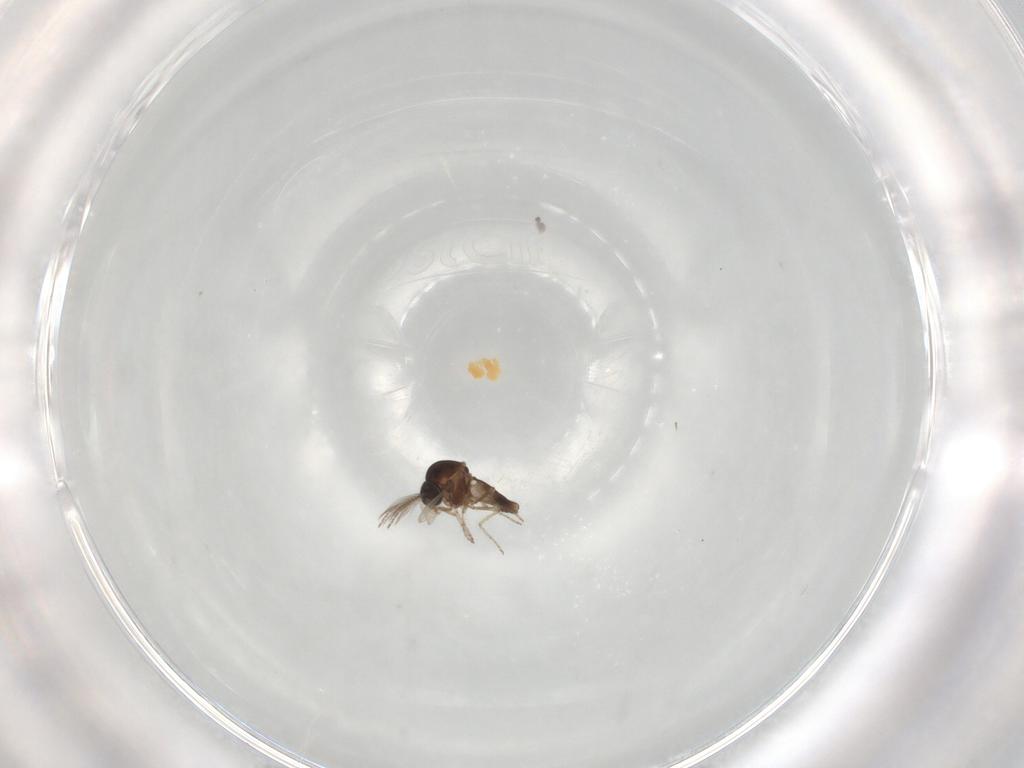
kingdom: Animalia
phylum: Arthropoda
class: Insecta
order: Diptera
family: Ceratopogonidae
